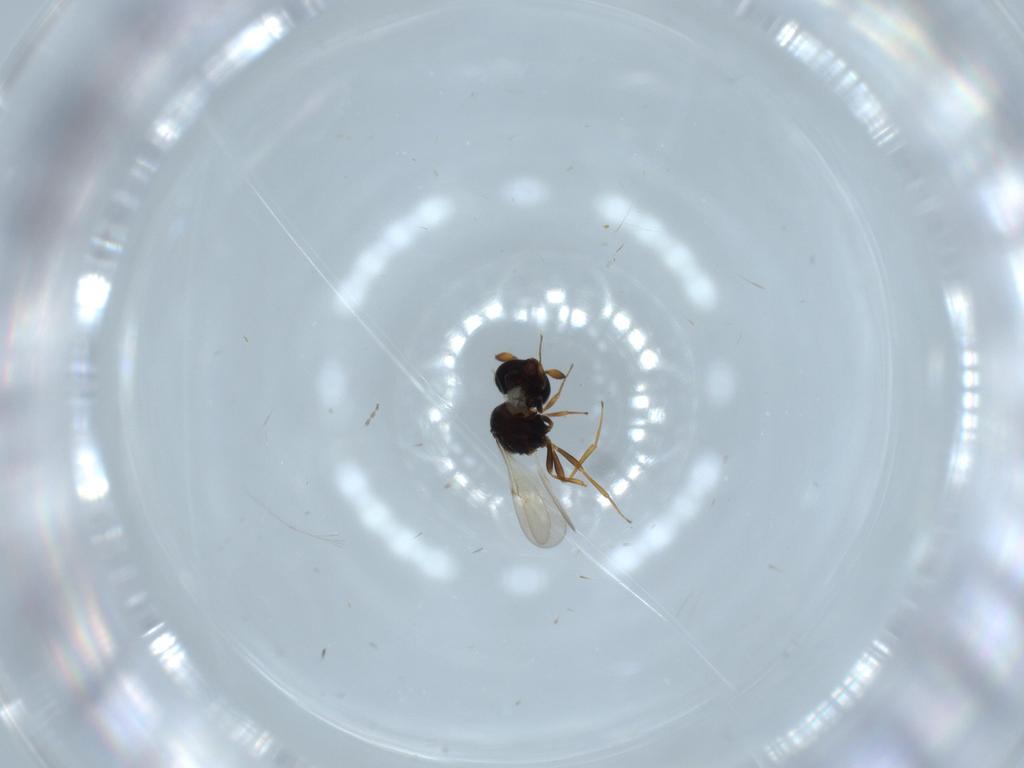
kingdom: Animalia
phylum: Arthropoda
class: Insecta
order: Hymenoptera
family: Scelionidae
